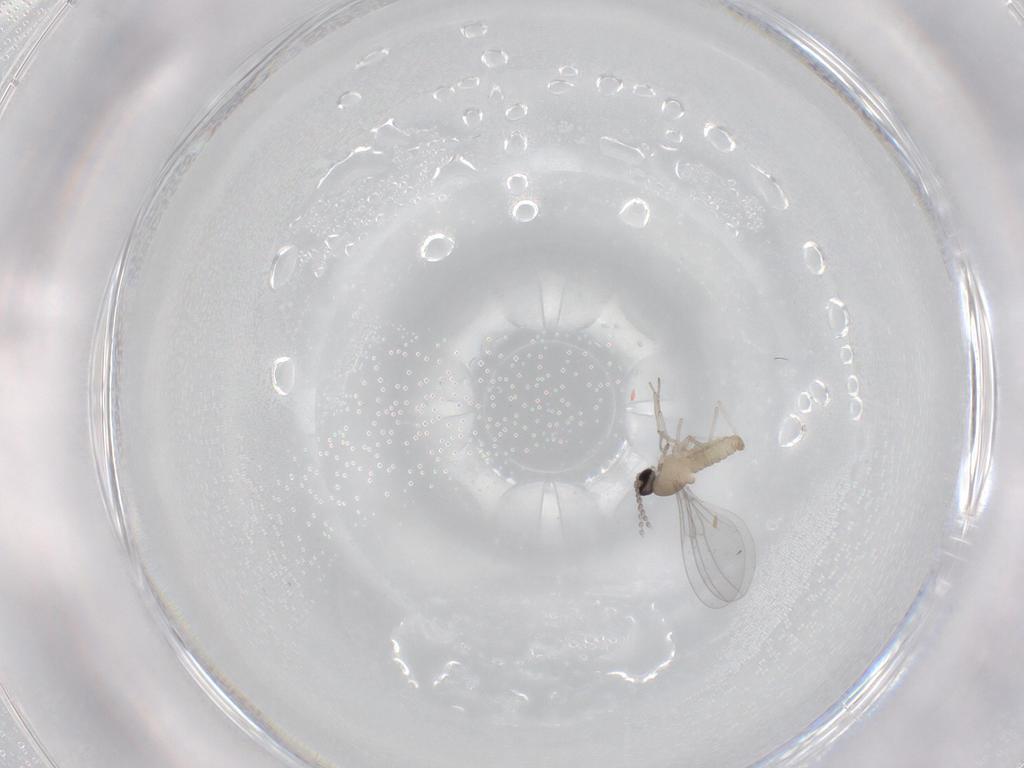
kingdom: Animalia
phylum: Arthropoda
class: Insecta
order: Diptera
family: Cecidomyiidae
